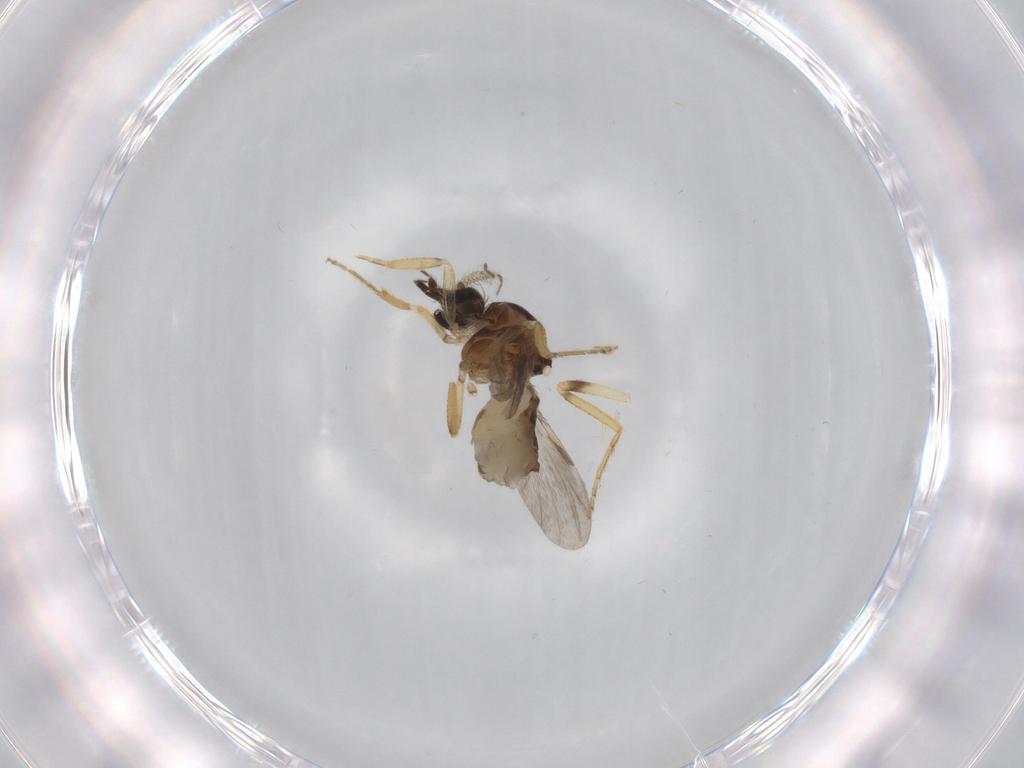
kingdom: Animalia
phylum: Arthropoda
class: Insecta
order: Diptera
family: Ceratopogonidae
